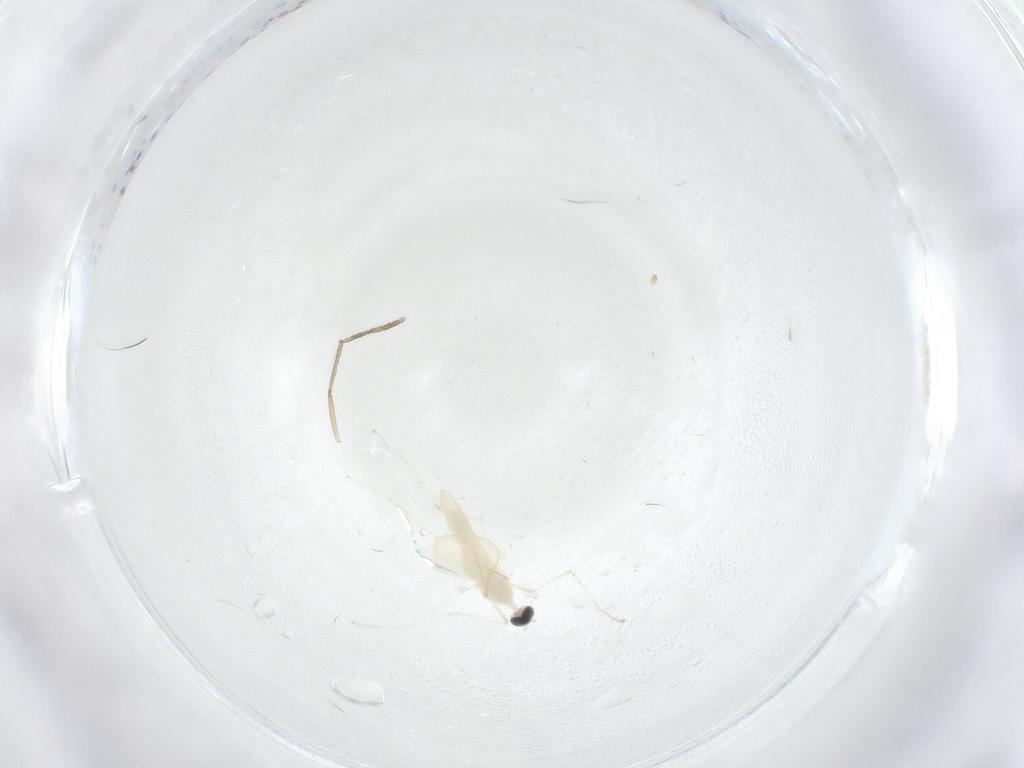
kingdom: Animalia
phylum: Arthropoda
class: Insecta
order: Diptera
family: Cecidomyiidae
